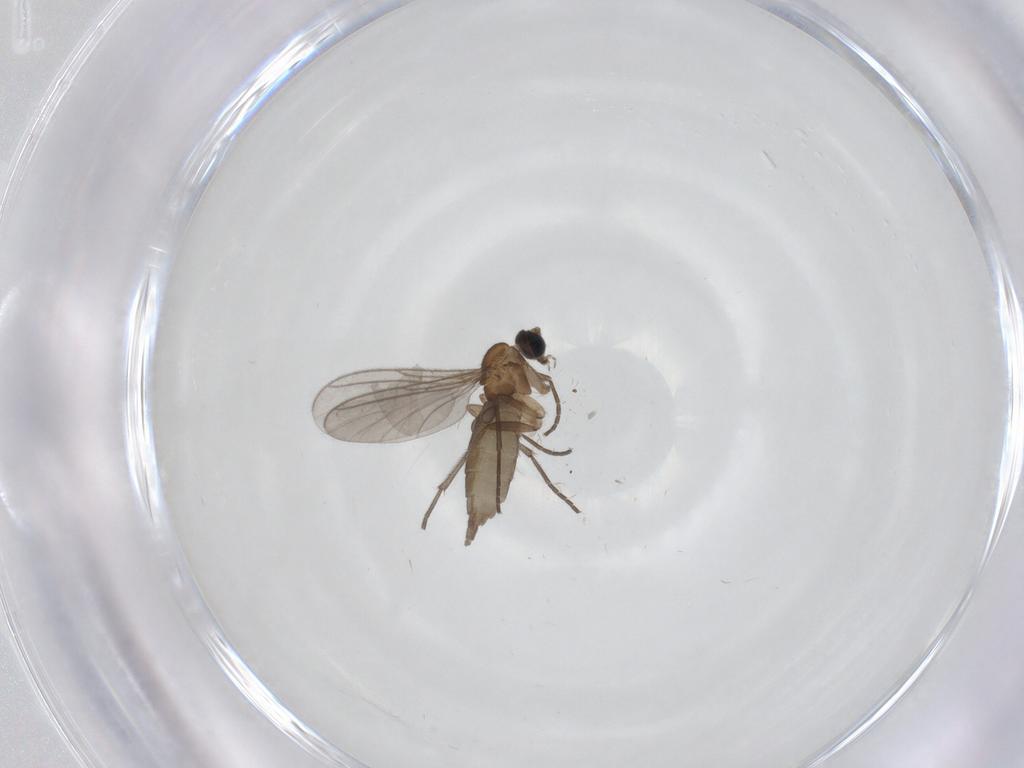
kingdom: Animalia
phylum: Arthropoda
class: Insecta
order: Diptera
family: Sciaridae
